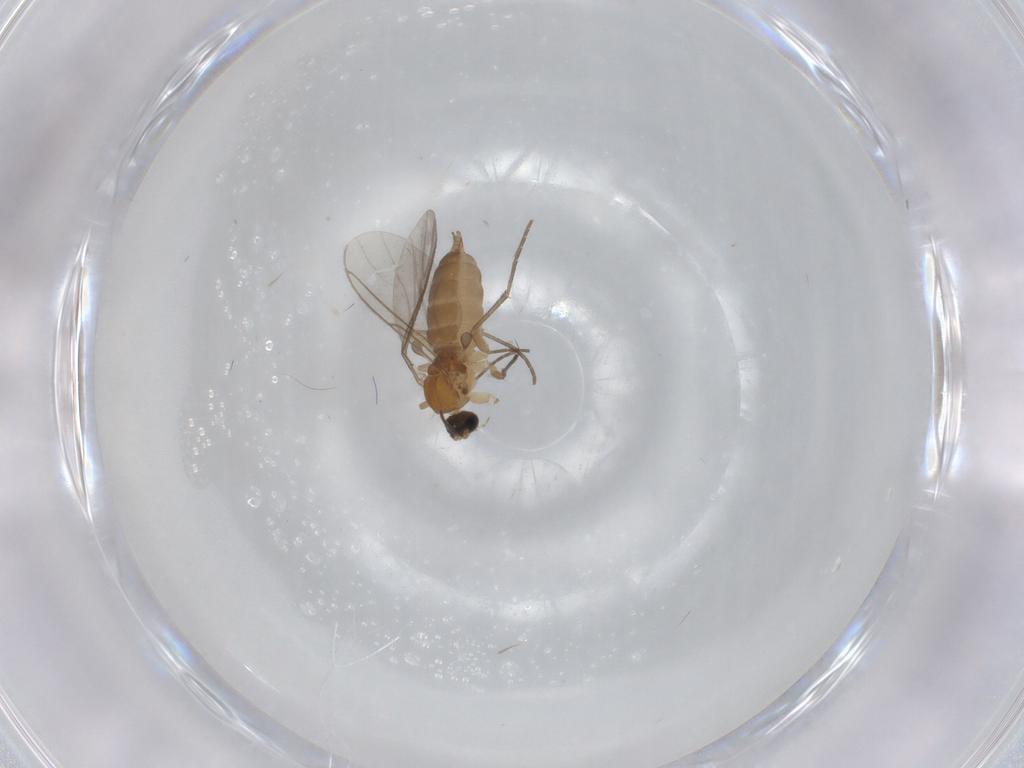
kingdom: Animalia
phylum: Arthropoda
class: Insecta
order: Diptera
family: Sciaridae
